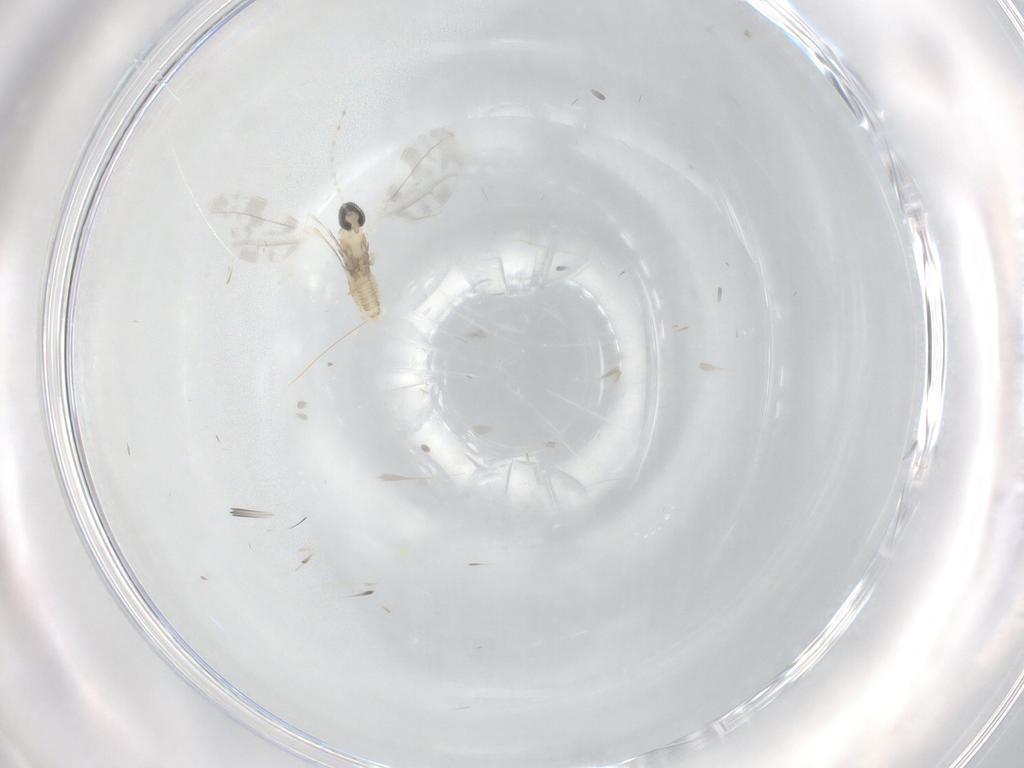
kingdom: Animalia
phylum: Arthropoda
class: Insecta
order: Diptera
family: Cecidomyiidae
